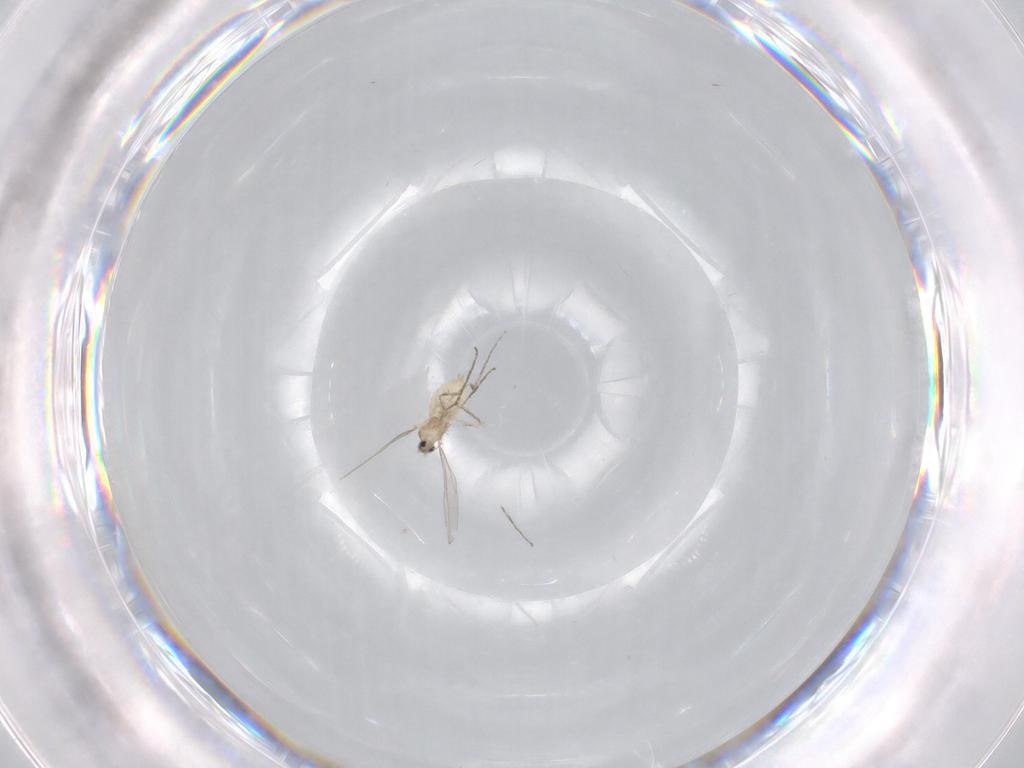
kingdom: Animalia
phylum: Arthropoda
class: Insecta
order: Diptera
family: Cecidomyiidae
